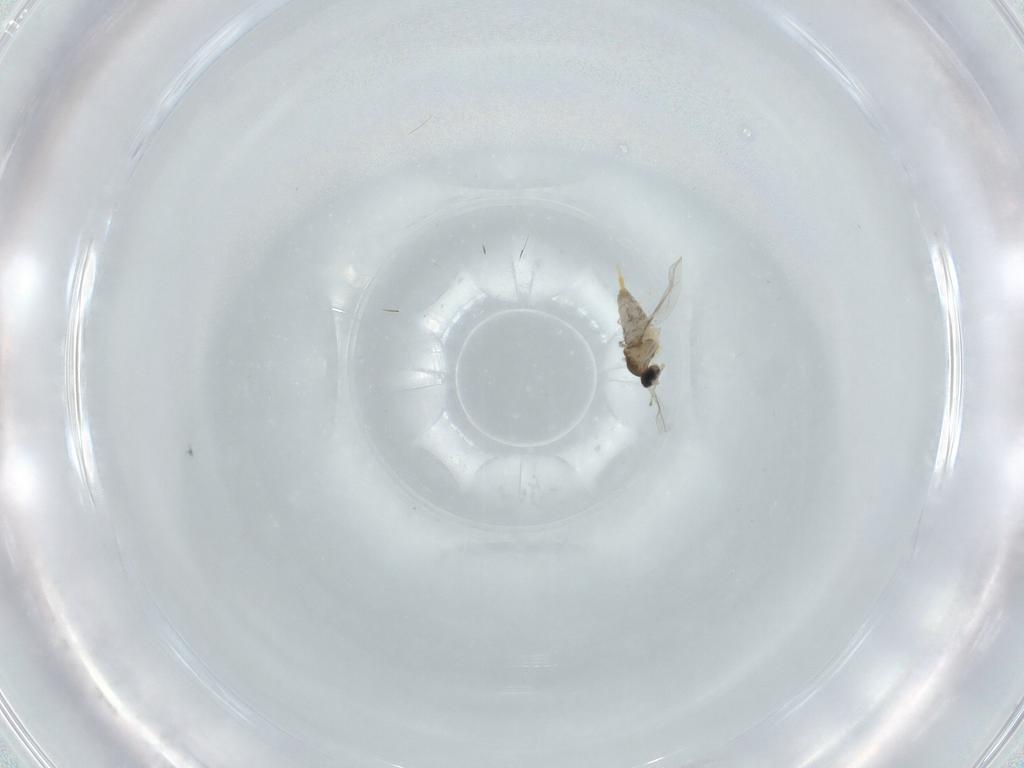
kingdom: Animalia
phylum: Arthropoda
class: Insecta
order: Diptera
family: Cecidomyiidae
